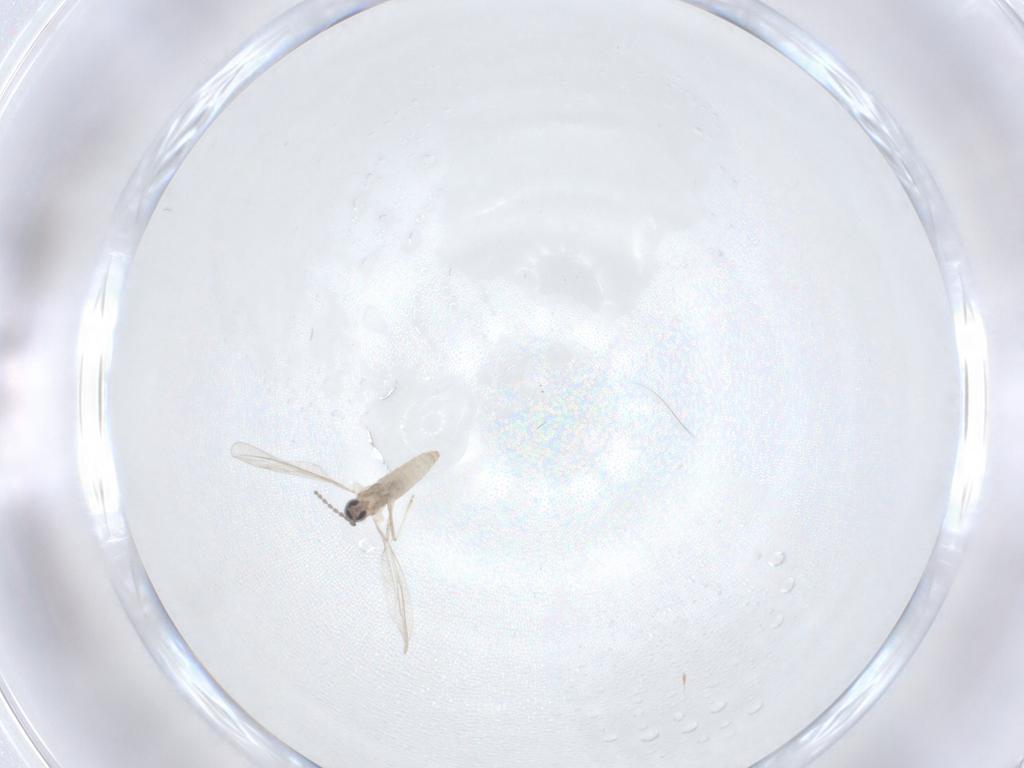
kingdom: Animalia
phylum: Arthropoda
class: Insecta
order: Diptera
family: Cecidomyiidae
